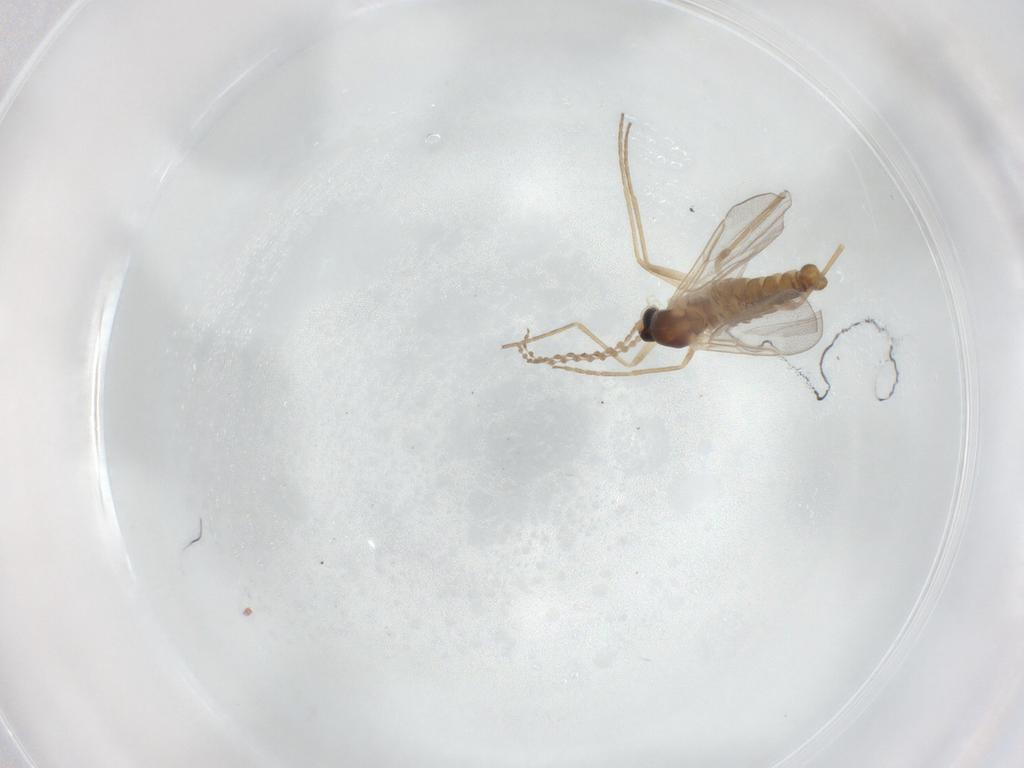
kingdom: Animalia
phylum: Arthropoda
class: Insecta
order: Diptera
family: Cecidomyiidae
